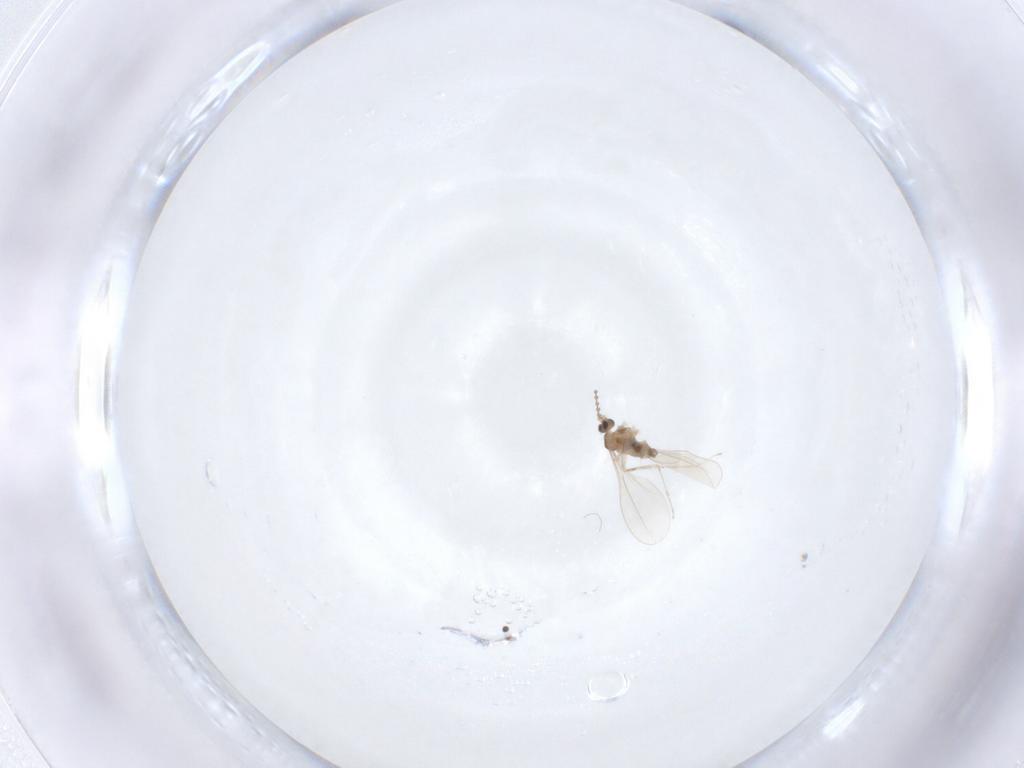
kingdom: Animalia
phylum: Arthropoda
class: Insecta
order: Diptera
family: Cecidomyiidae
